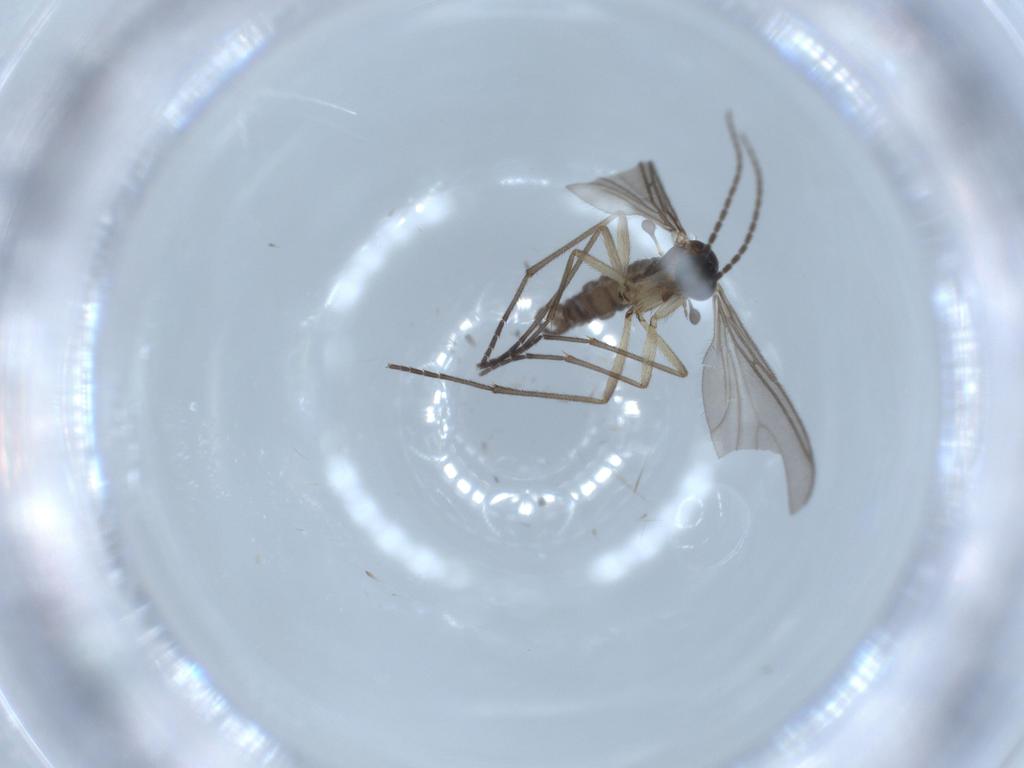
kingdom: Animalia
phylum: Arthropoda
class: Insecta
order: Diptera
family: Sciaridae
